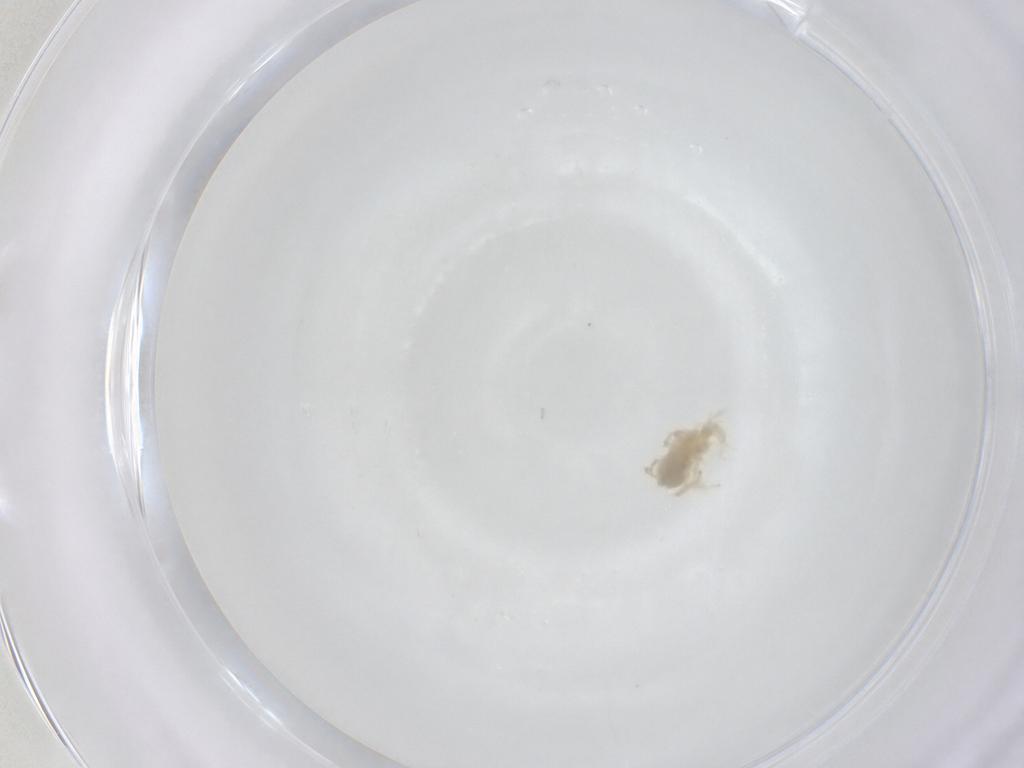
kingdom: Animalia
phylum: Arthropoda
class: Arachnida
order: Trombidiformes
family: Anystidae
